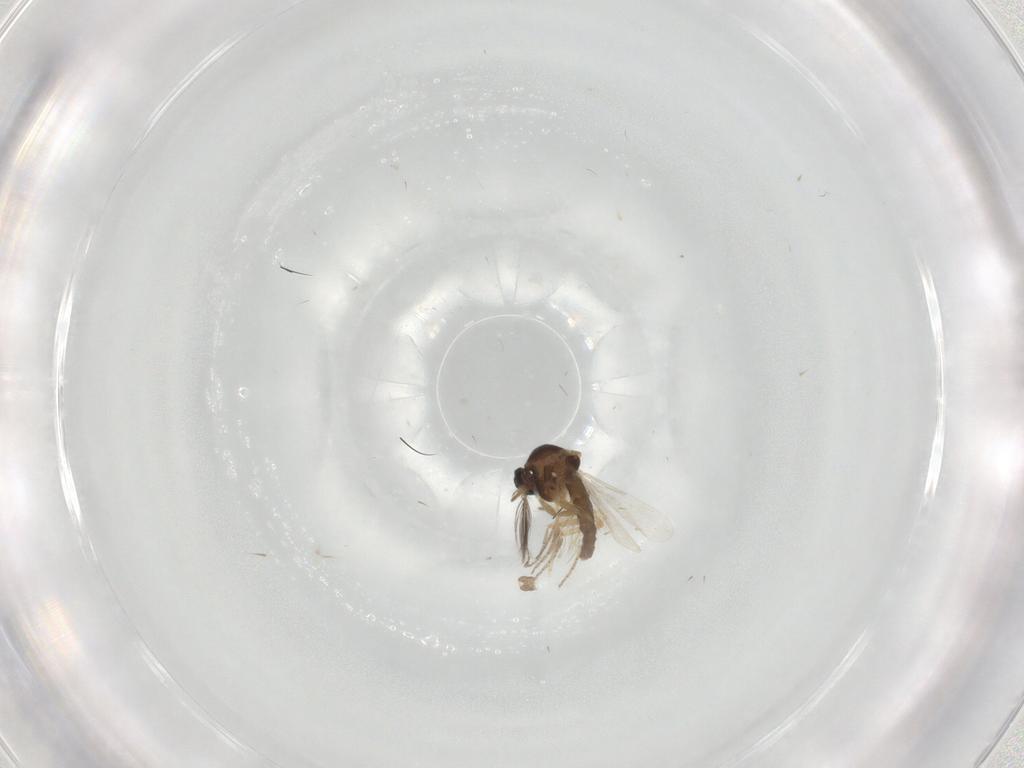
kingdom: Animalia
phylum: Arthropoda
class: Insecta
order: Diptera
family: Ceratopogonidae
